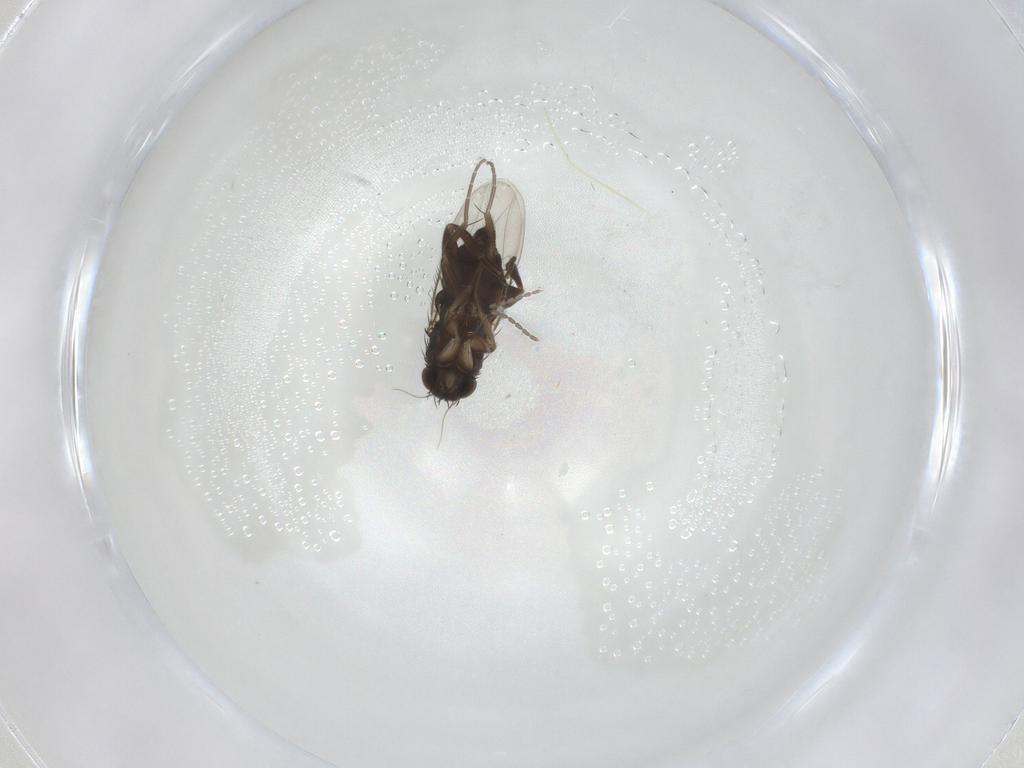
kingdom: Animalia
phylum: Arthropoda
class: Insecta
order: Diptera
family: Phoridae
